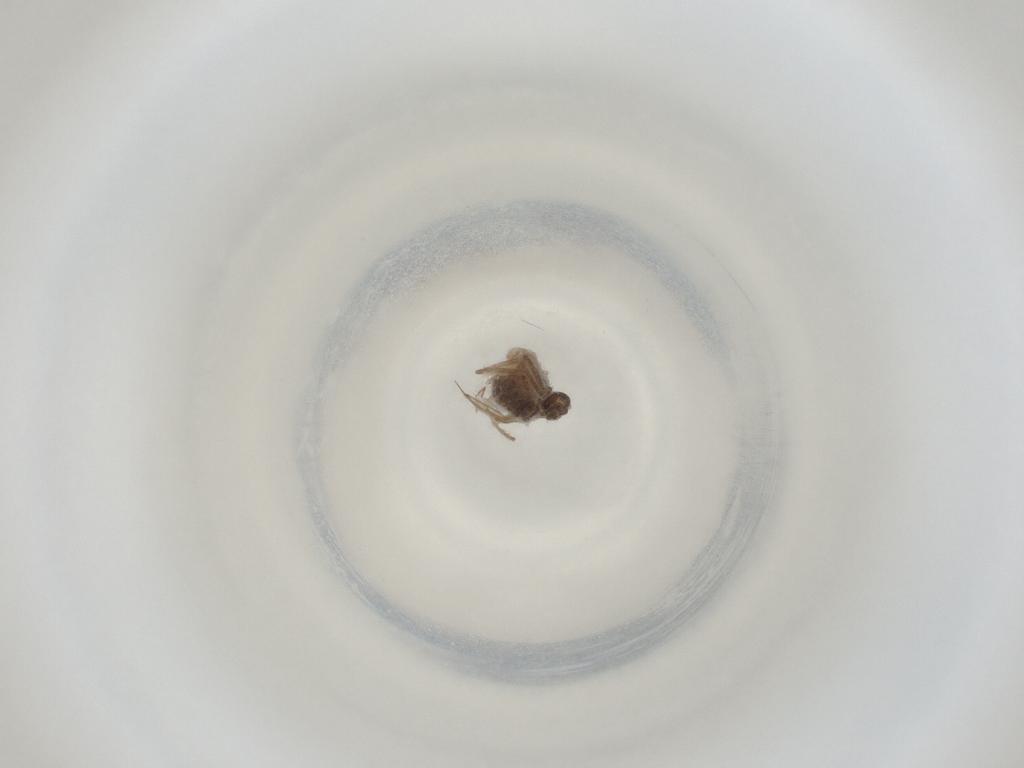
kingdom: Animalia
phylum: Arthropoda
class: Insecta
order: Diptera
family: Cecidomyiidae
